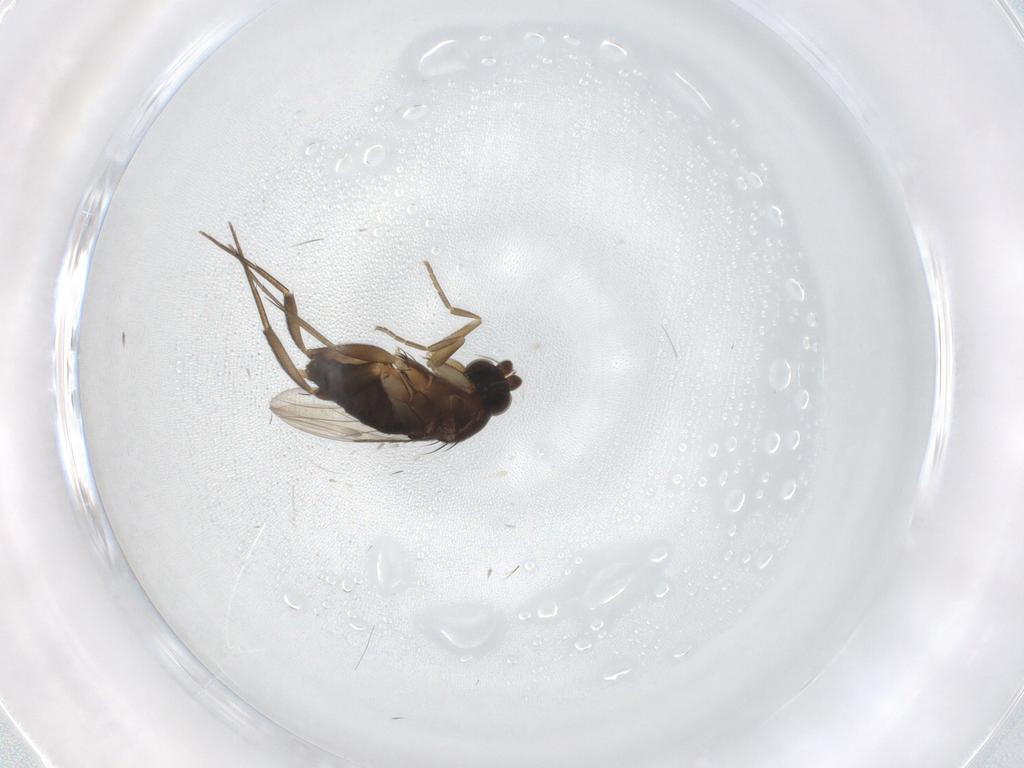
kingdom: Animalia
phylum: Arthropoda
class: Insecta
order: Diptera
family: Phoridae
